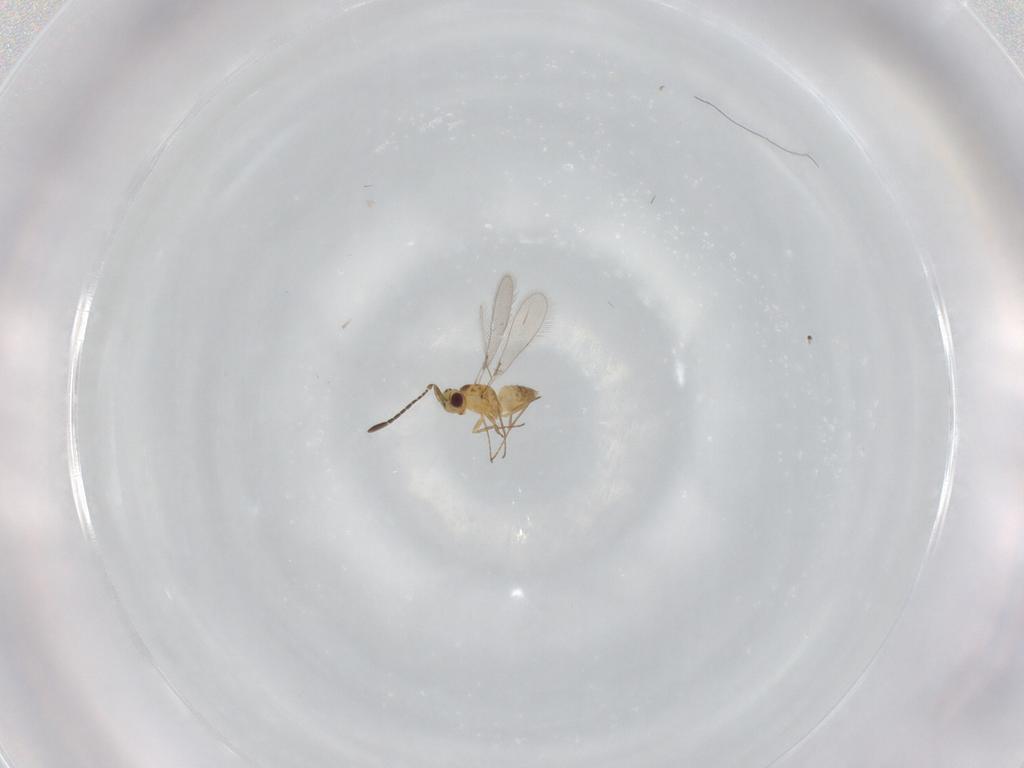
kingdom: Animalia
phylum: Arthropoda
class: Insecta
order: Hymenoptera
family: Mymaridae
